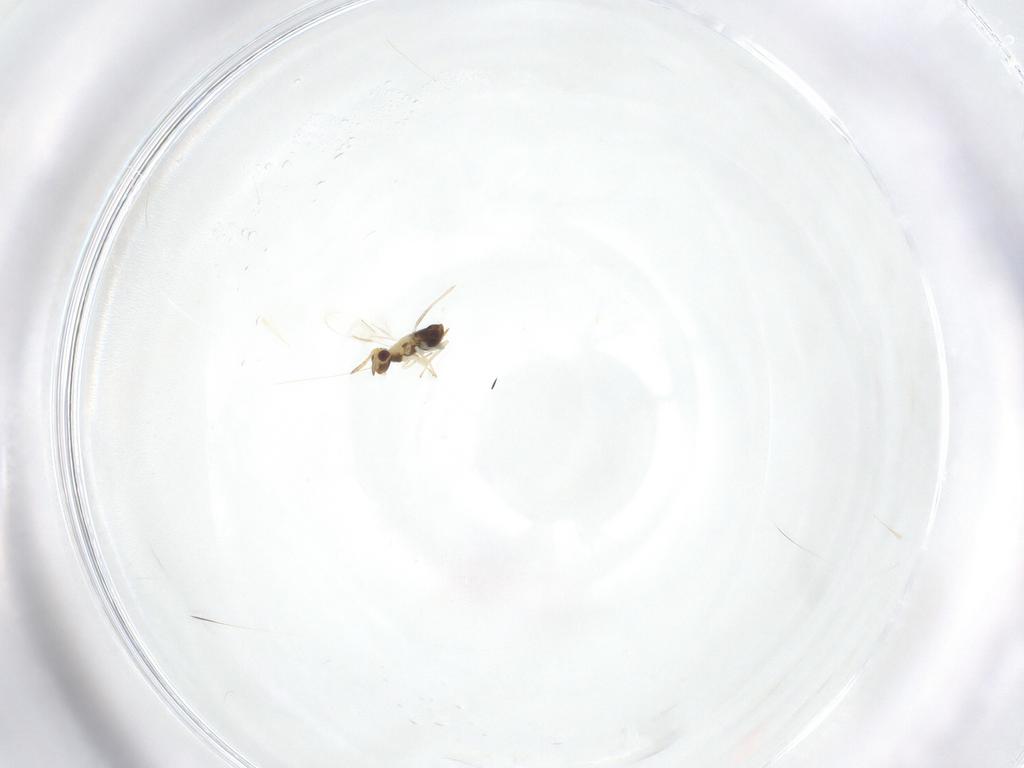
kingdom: Animalia
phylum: Arthropoda
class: Insecta
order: Hymenoptera
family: Aphelinidae
